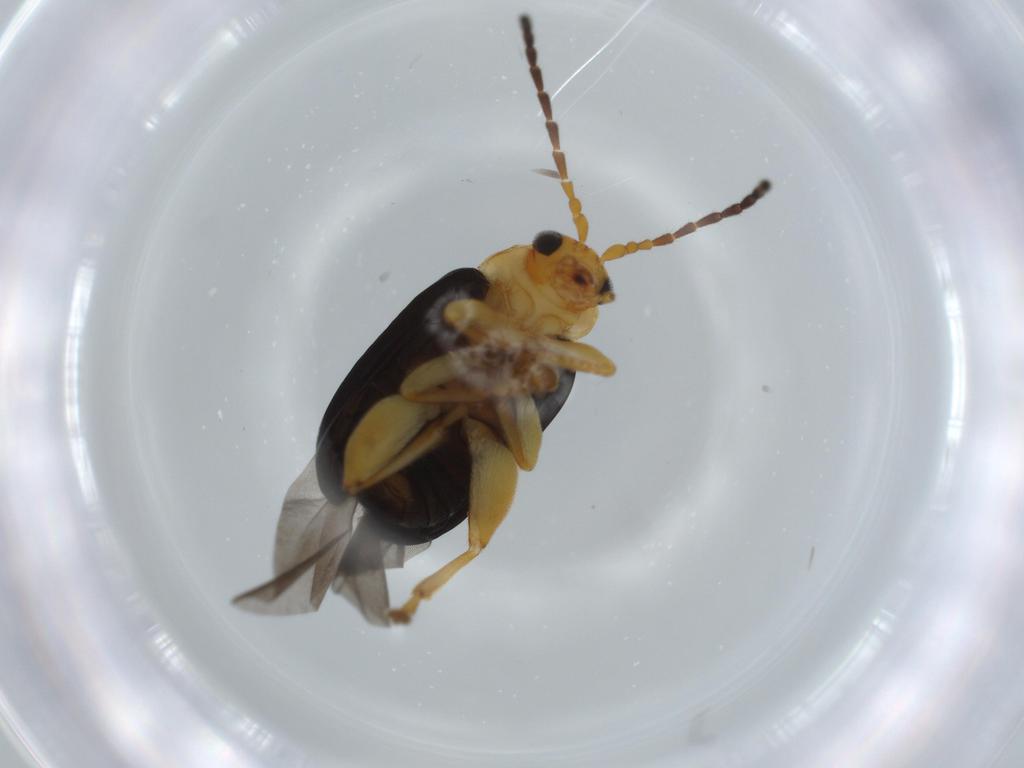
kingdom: Animalia
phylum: Arthropoda
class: Insecta
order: Coleoptera
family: Chrysomelidae
